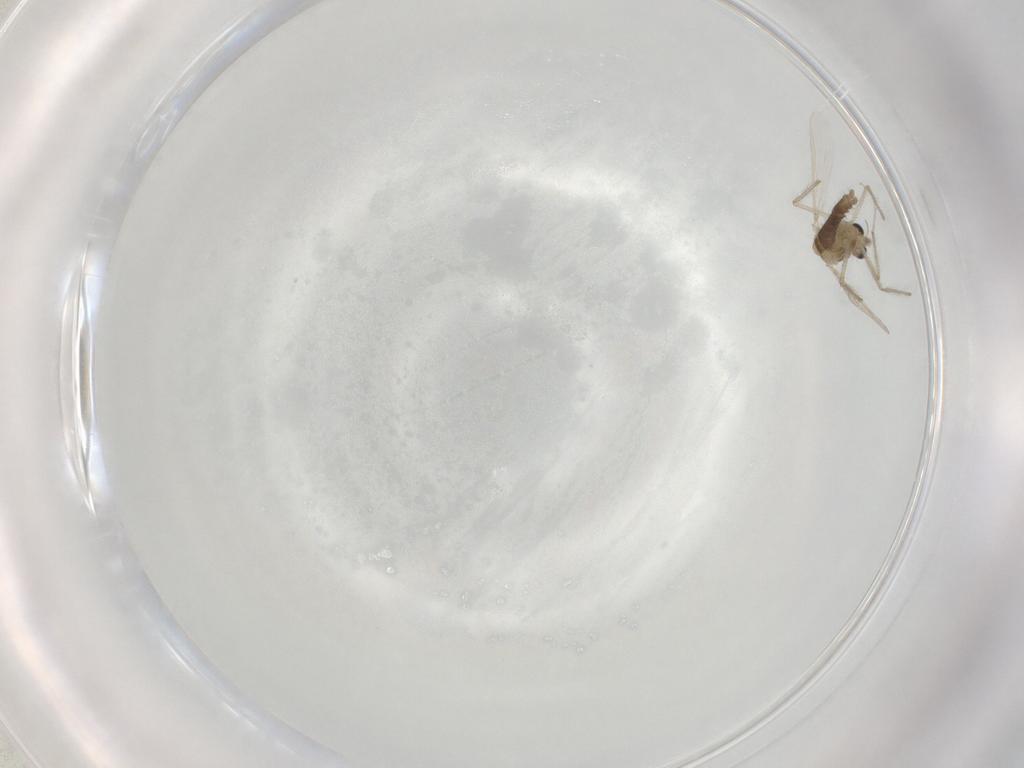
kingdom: Animalia
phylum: Arthropoda
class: Insecta
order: Diptera
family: Chironomidae
